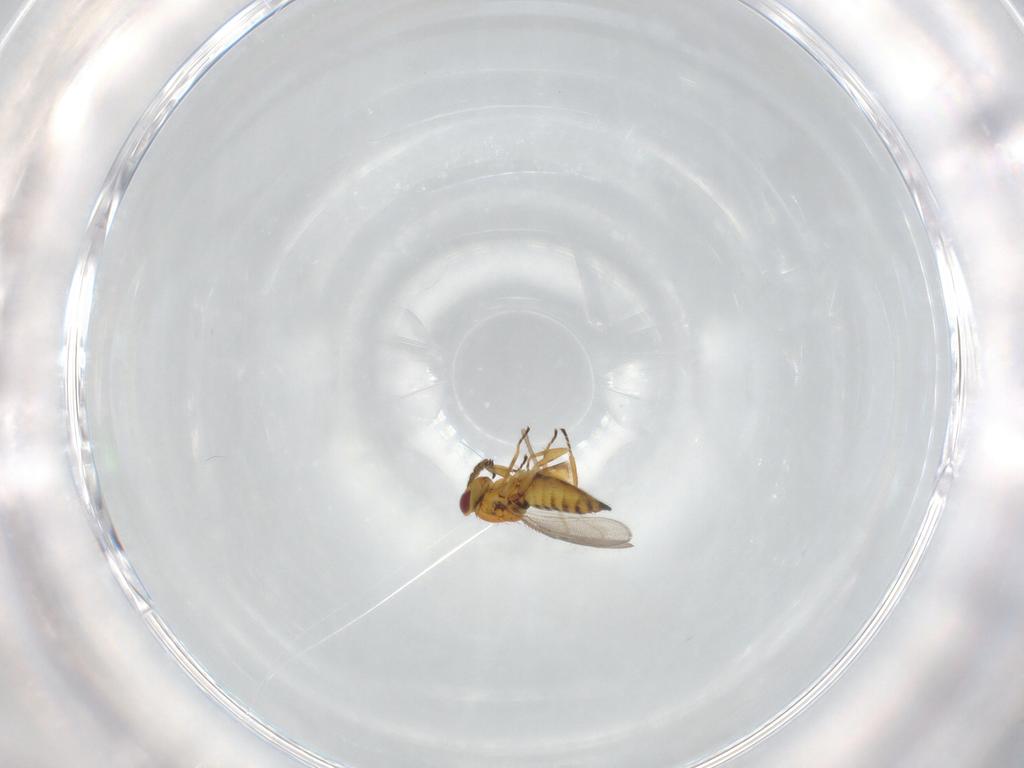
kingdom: Animalia
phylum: Arthropoda
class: Insecta
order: Hymenoptera
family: Eulophidae
